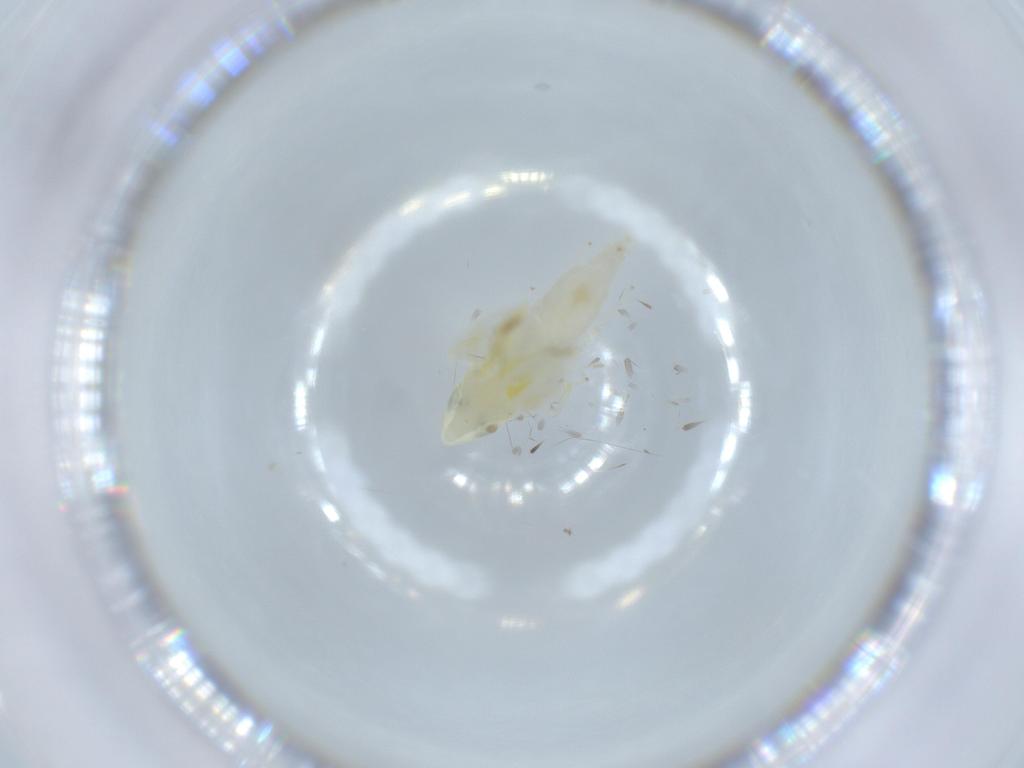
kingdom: Animalia
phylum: Arthropoda
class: Insecta
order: Hemiptera
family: Cicadellidae
